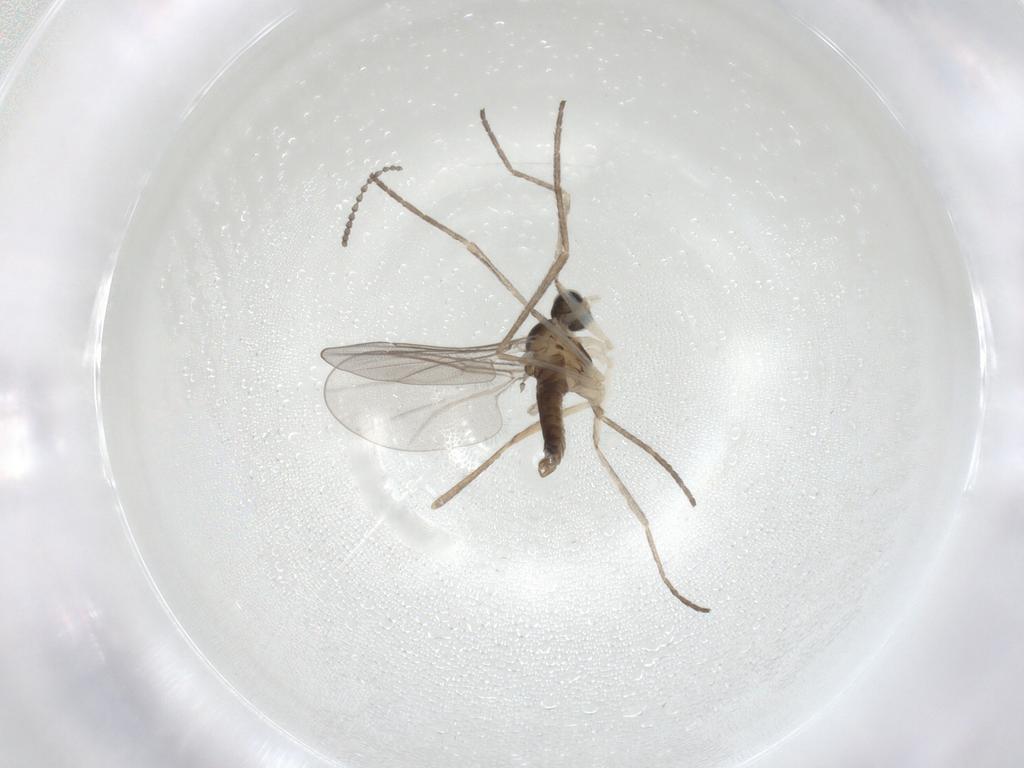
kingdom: Animalia
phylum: Arthropoda
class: Insecta
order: Diptera
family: Cecidomyiidae
